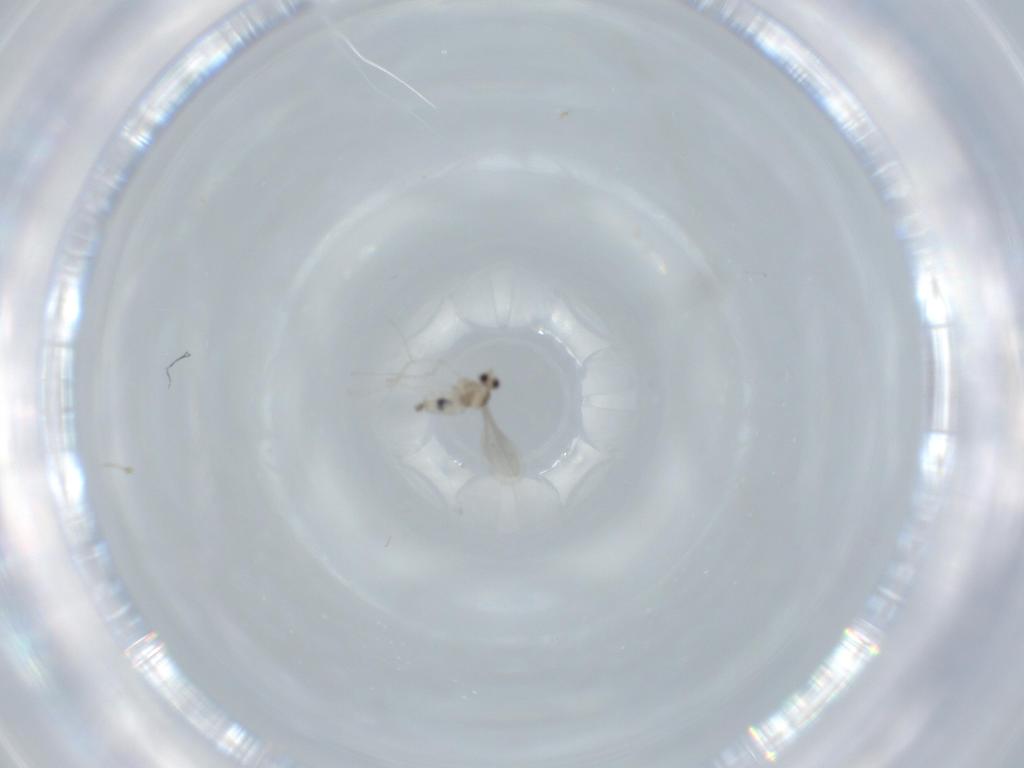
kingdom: Animalia
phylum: Arthropoda
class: Insecta
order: Diptera
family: Cecidomyiidae
